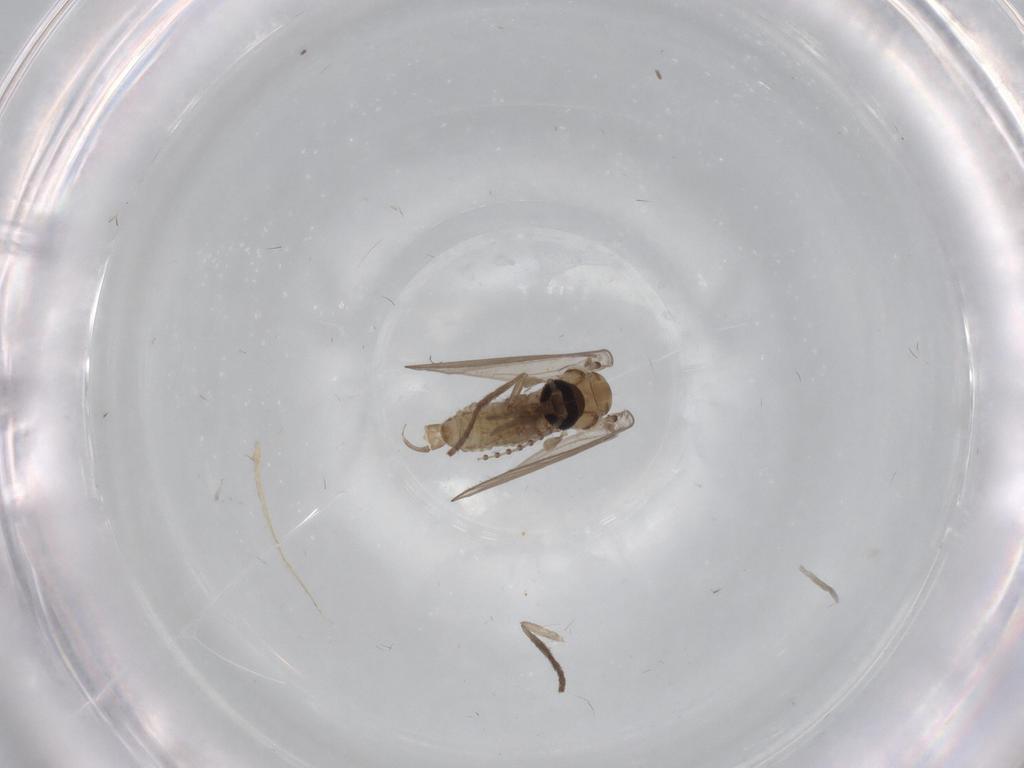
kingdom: Animalia
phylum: Arthropoda
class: Insecta
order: Diptera
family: Psychodidae
